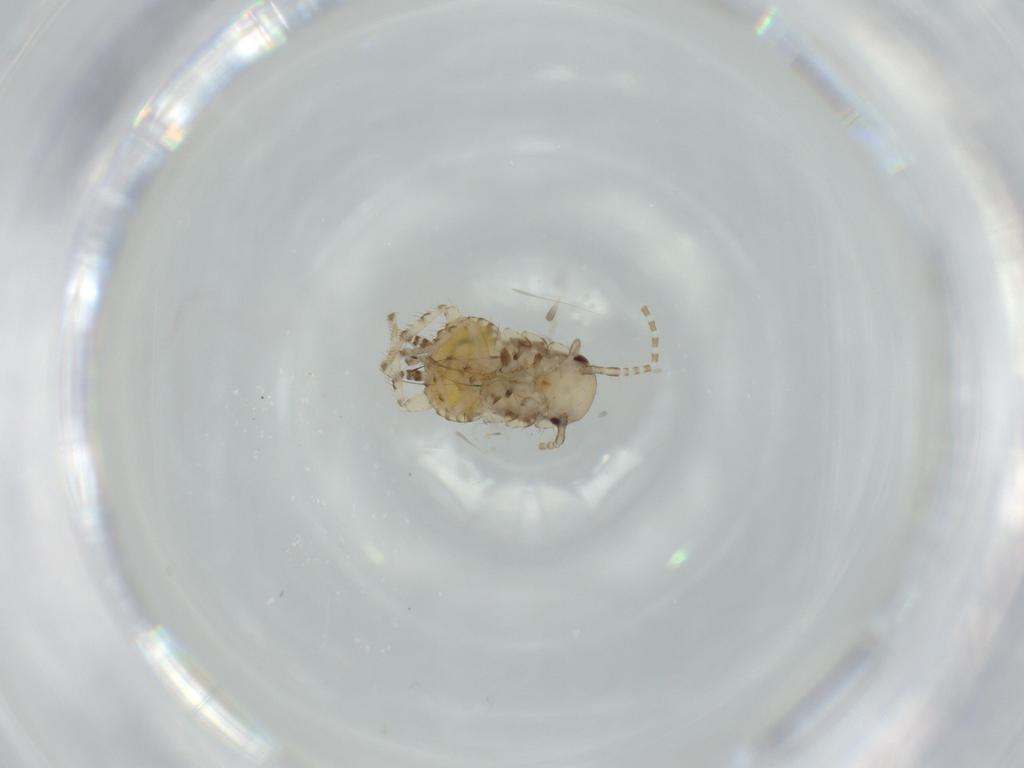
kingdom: Animalia
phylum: Arthropoda
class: Insecta
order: Blattodea
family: Ectobiidae
